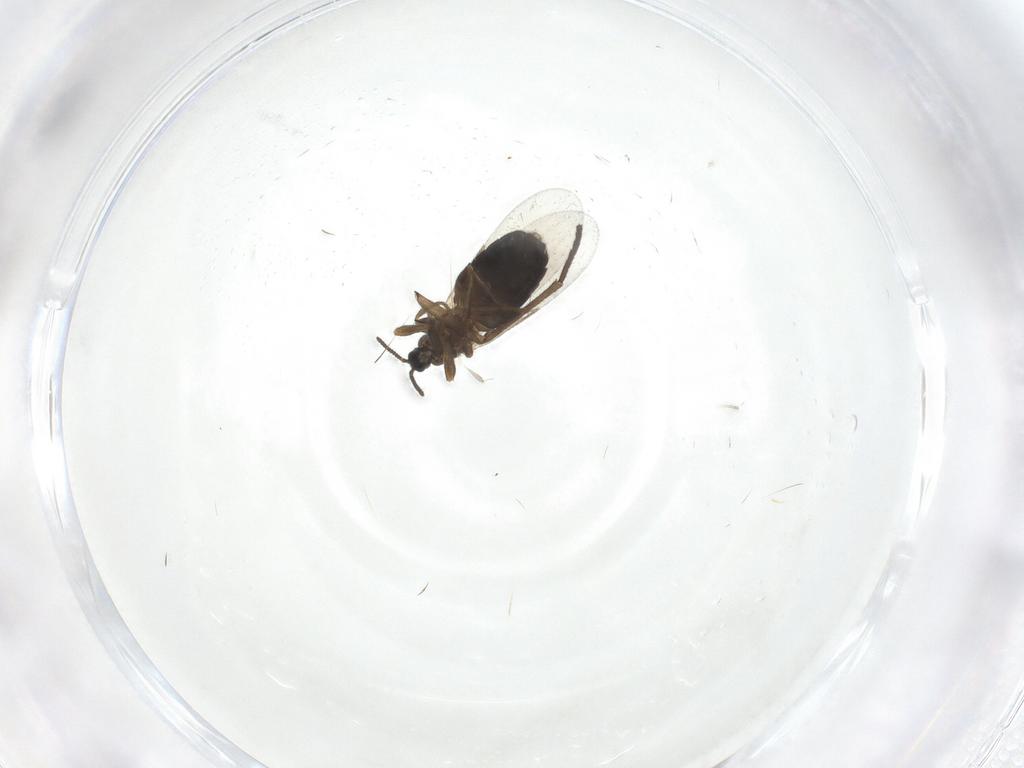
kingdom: Animalia
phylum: Arthropoda
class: Insecta
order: Diptera
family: Scatopsidae
